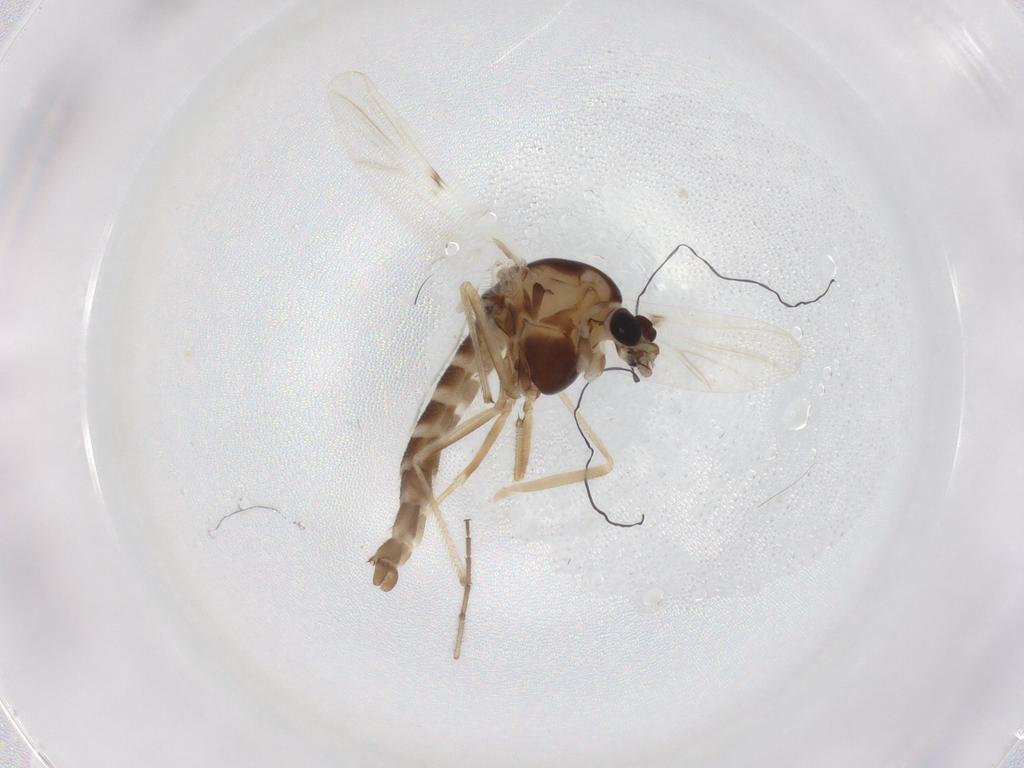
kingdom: Animalia
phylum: Arthropoda
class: Insecta
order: Diptera
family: Chironomidae
